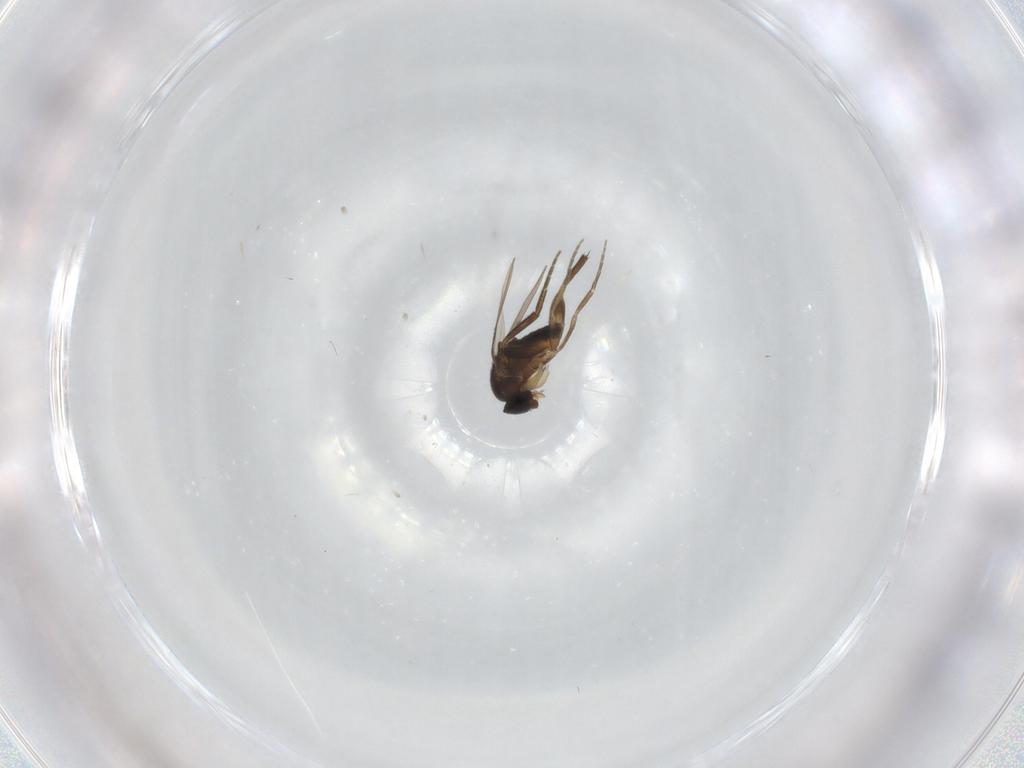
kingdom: Animalia
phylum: Arthropoda
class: Insecta
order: Diptera
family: Phoridae
